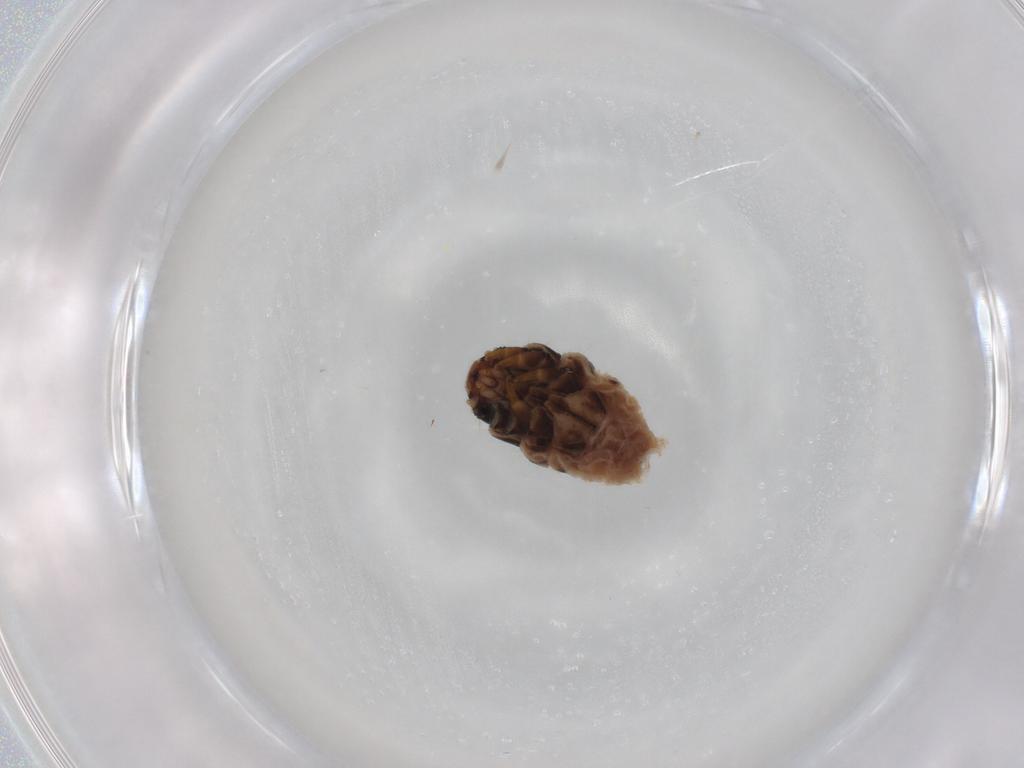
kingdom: Animalia
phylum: Arthropoda
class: Insecta
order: Lepidoptera
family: Psychidae
